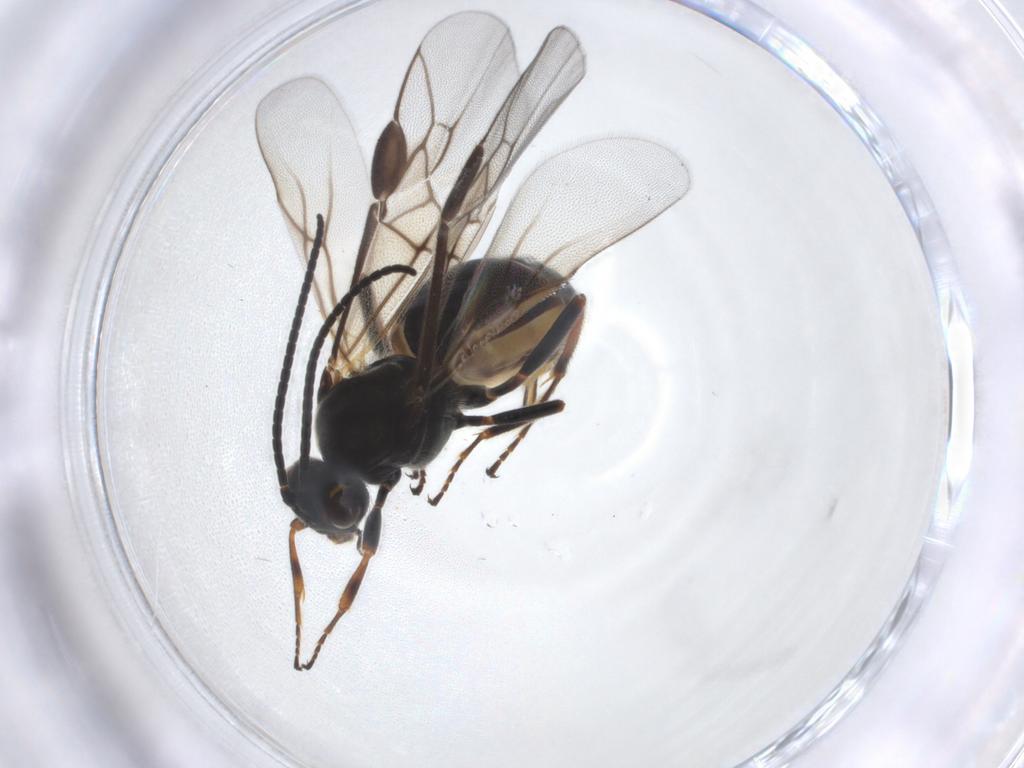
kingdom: Animalia
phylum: Arthropoda
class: Insecta
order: Hymenoptera
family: Braconidae
